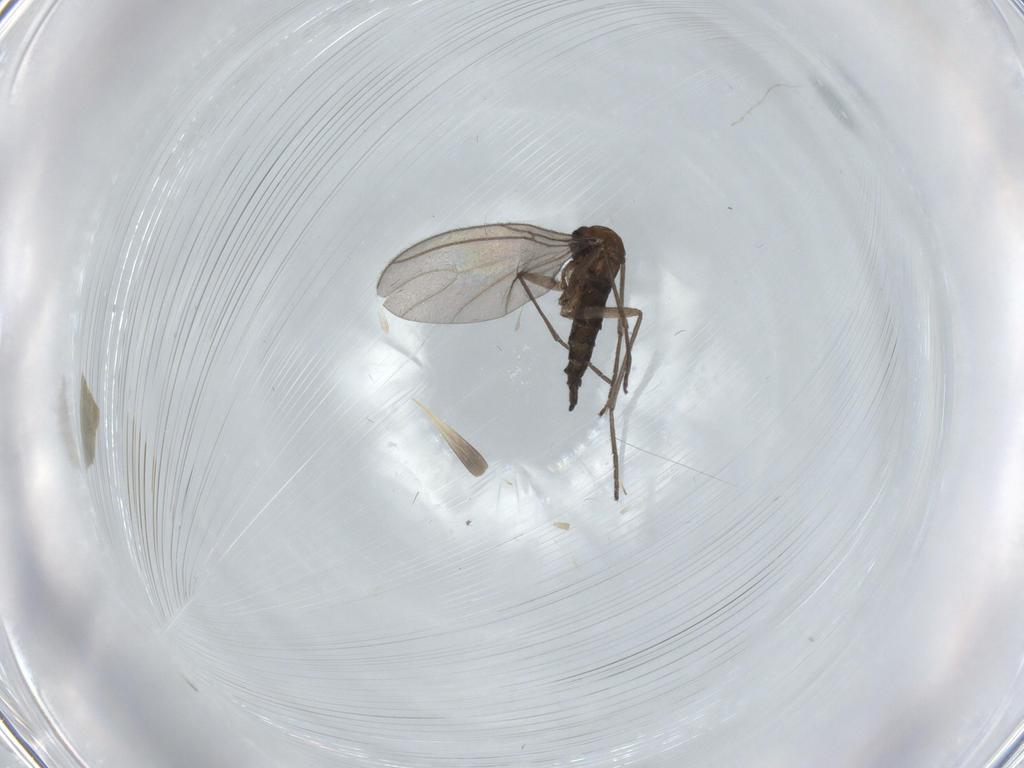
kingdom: Animalia
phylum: Arthropoda
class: Insecta
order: Diptera
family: Sciaridae
